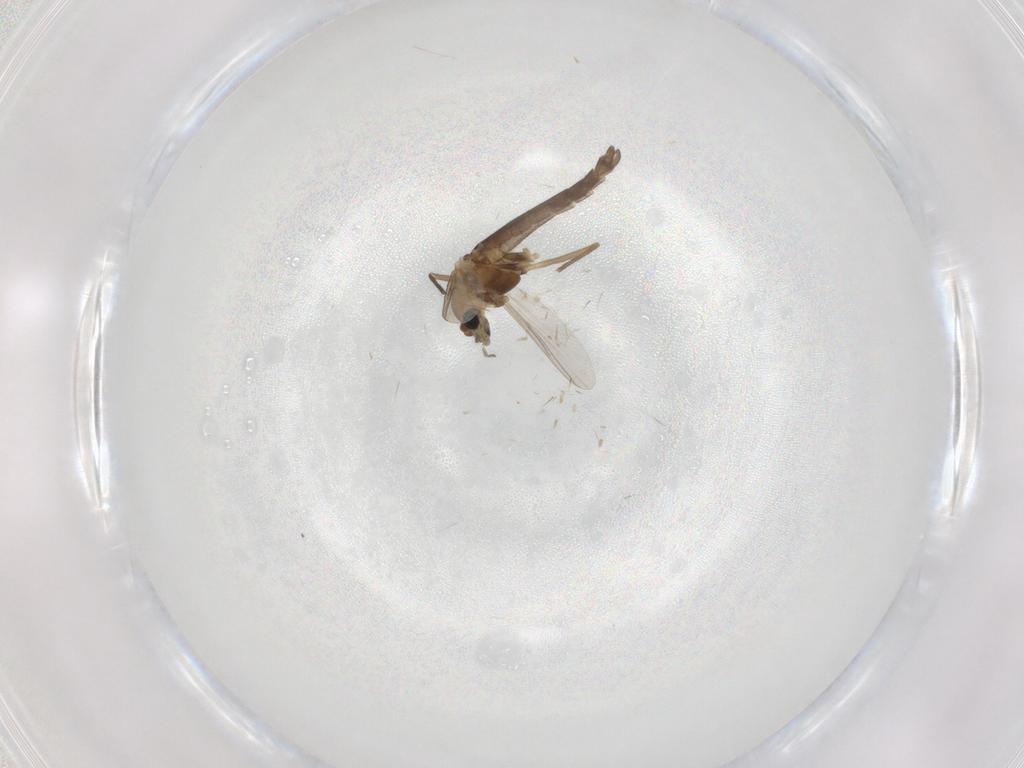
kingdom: Animalia
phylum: Arthropoda
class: Insecta
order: Diptera
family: Chironomidae
